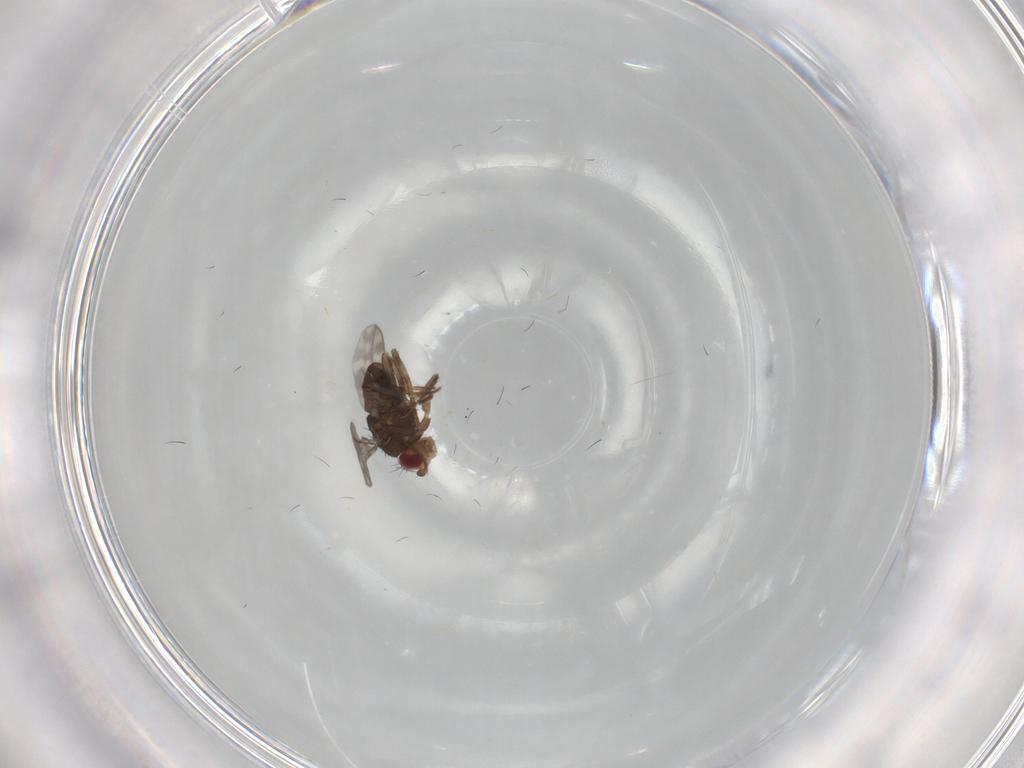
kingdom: Animalia
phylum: Arthropoda
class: Insecta
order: Diptera
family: Sphaeroceridae
